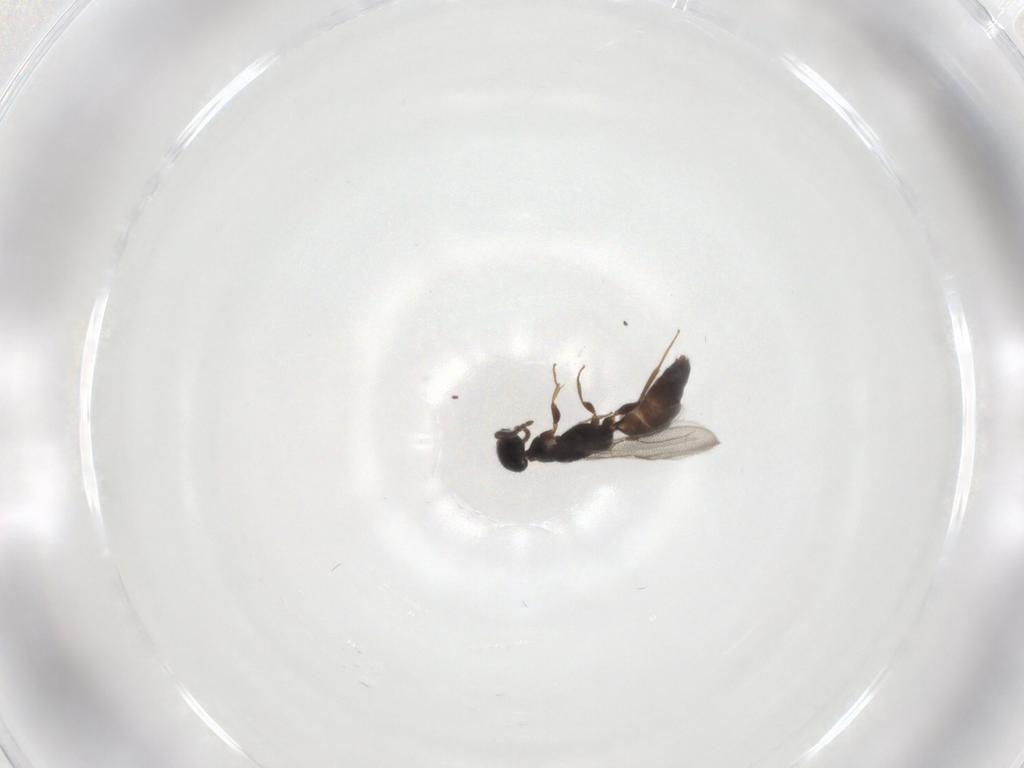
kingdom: Animalia
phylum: Arthropoda
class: Insecta
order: Hymenoptera
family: Bethylidae
